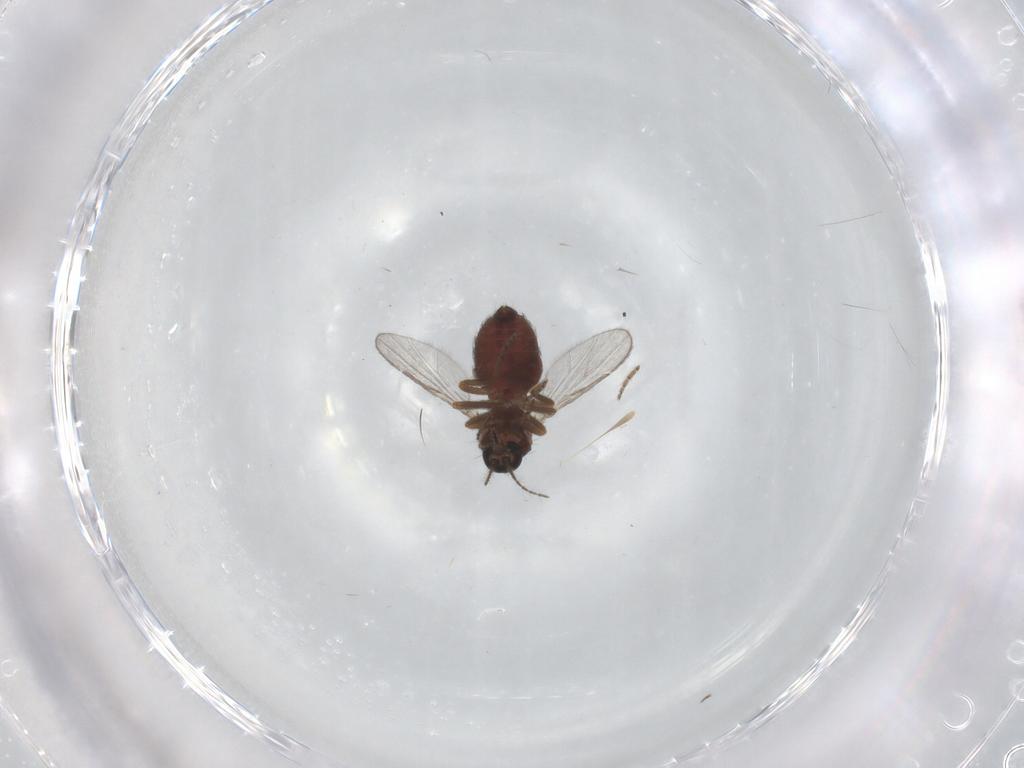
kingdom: Animalia
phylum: Arthropoda
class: Insecta
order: Diptera
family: Ceratopogonidae
